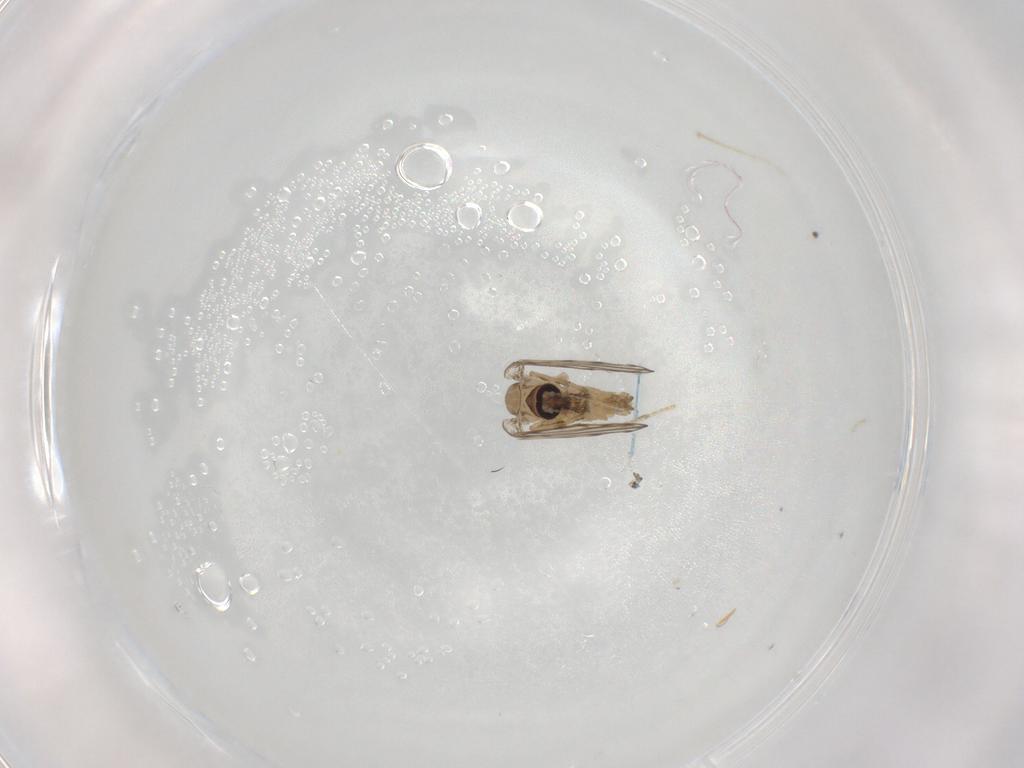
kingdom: Animalia
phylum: Arthropoda
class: Insecta
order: Diptera
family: Psychodidae
